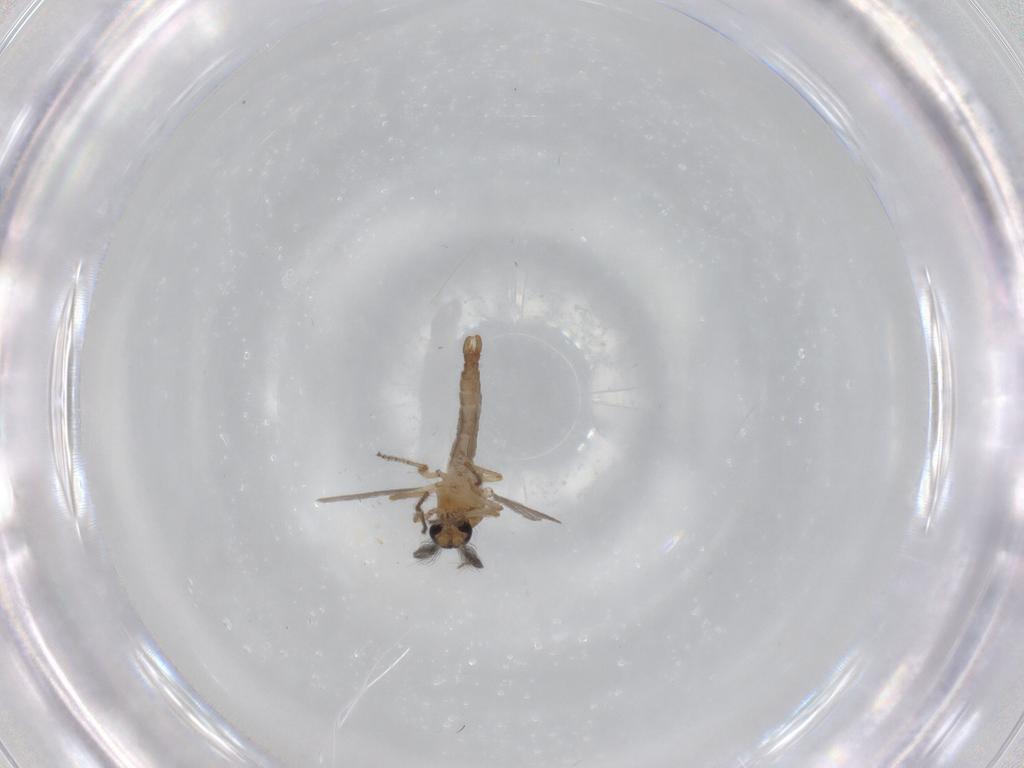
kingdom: Animalia
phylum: Arthropoda
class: Insecta
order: Diptera
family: Ceratopogonidae
